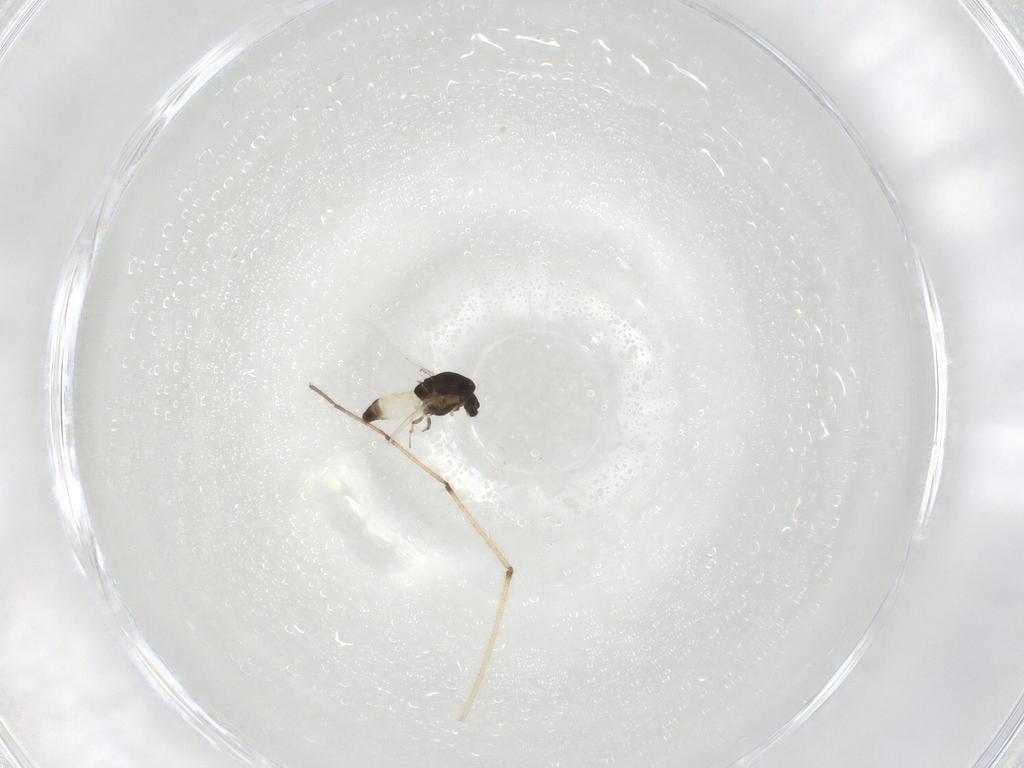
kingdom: Animalia
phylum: Arthropoda
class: Insecta
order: Diptera
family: Chironomidae
